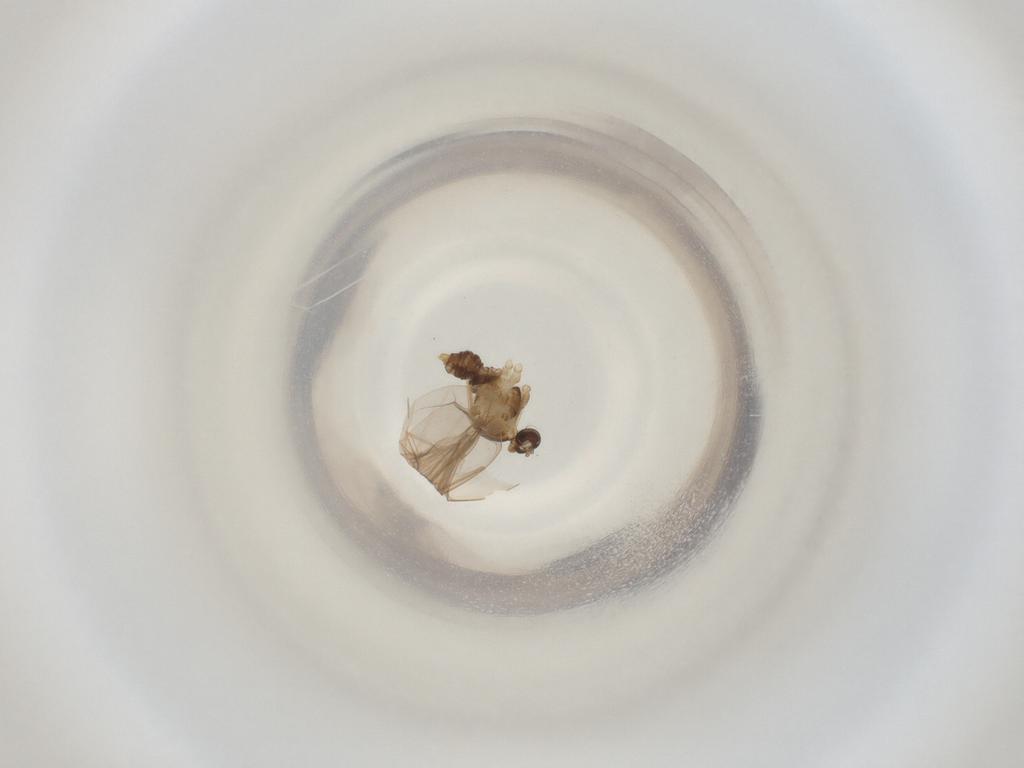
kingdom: Animalia
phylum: Arthropoda
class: Insecta
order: Diptera
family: Cecidomyiidae
